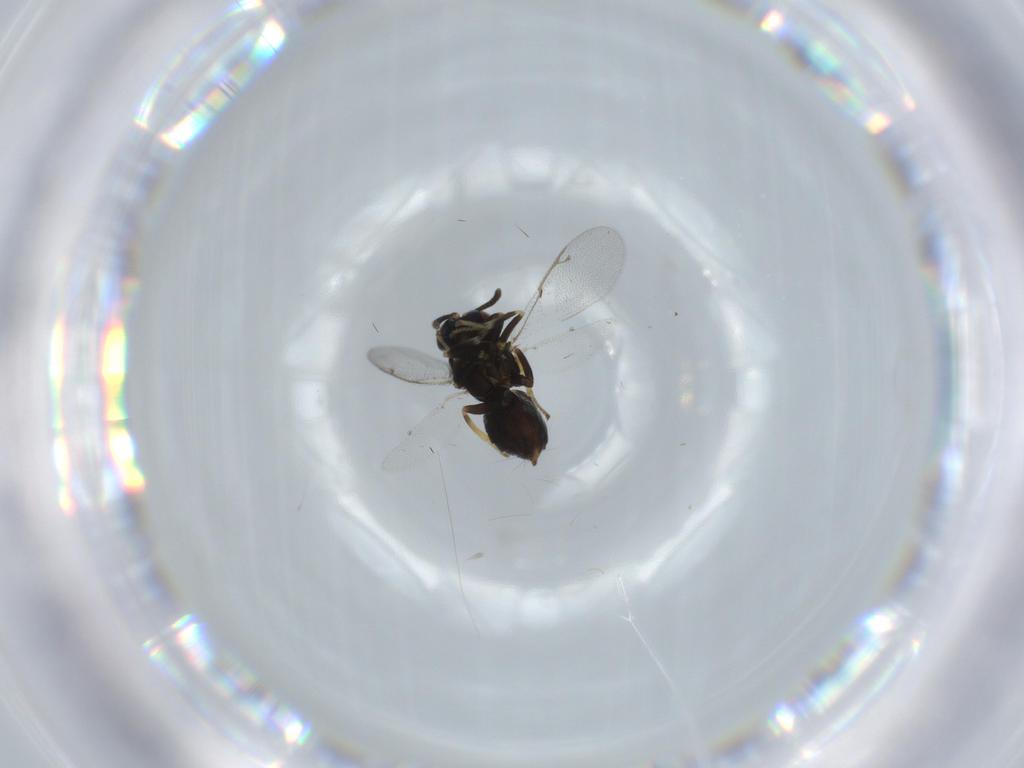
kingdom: Animalia
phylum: Arthropoda
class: Insecta
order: Hymenoptera
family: Tanaostigmatidae
